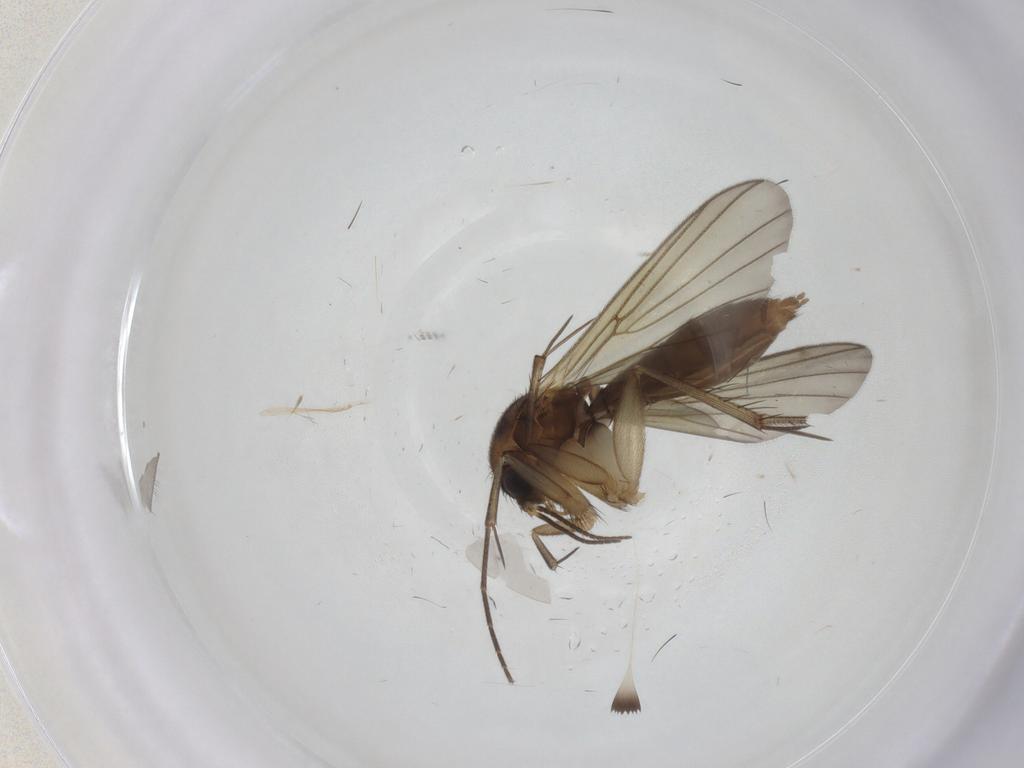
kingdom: Animalia
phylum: Arthropoda
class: Insecta
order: Diptera
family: Mycetophilidae
